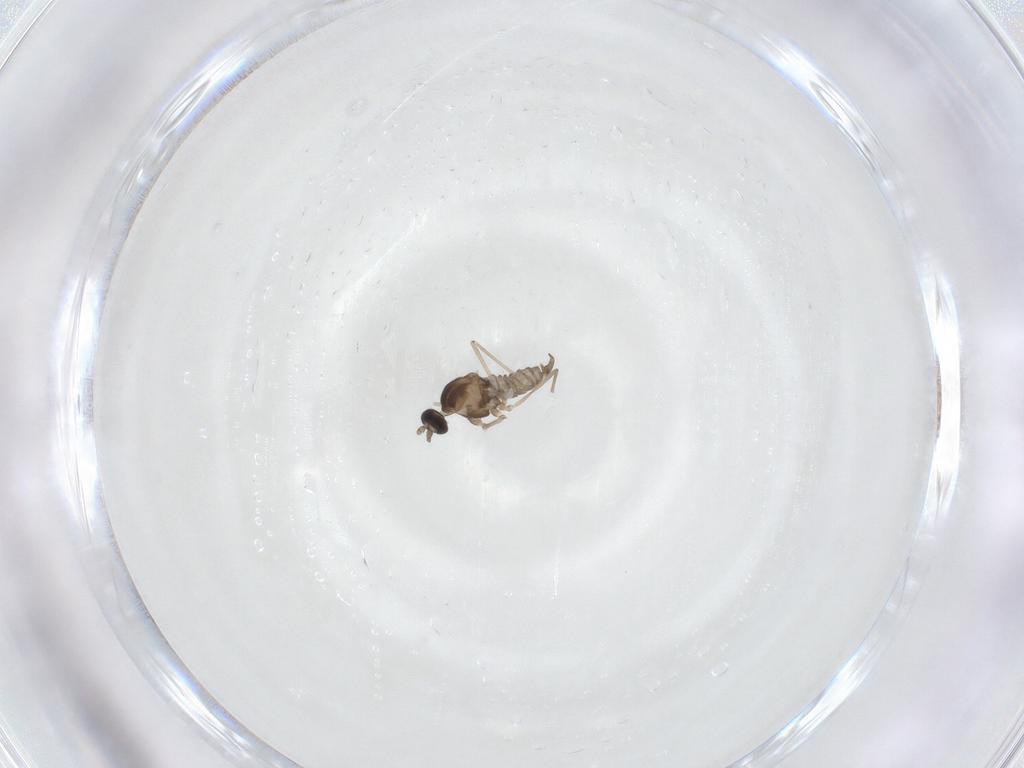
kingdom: Animalia
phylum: Arthropoda
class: Insecta
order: Diptera
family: Cecidomyiidae
